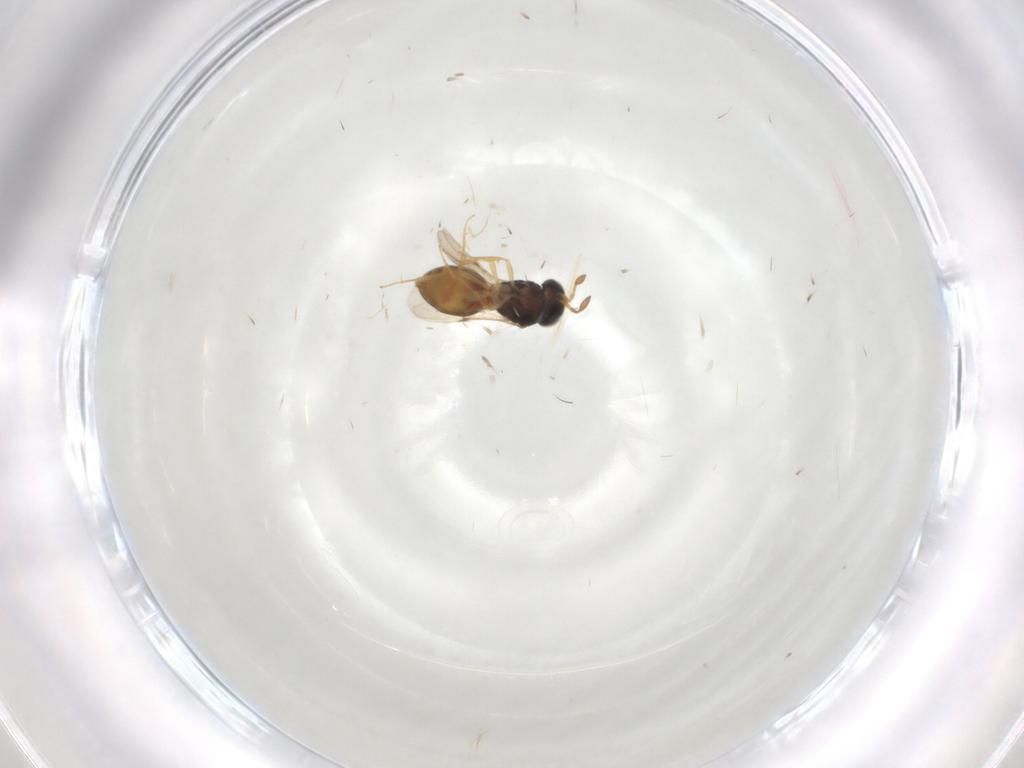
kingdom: Animalia
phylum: Arthropoda
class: Insecta
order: Hymenoptera
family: Scelionidae
